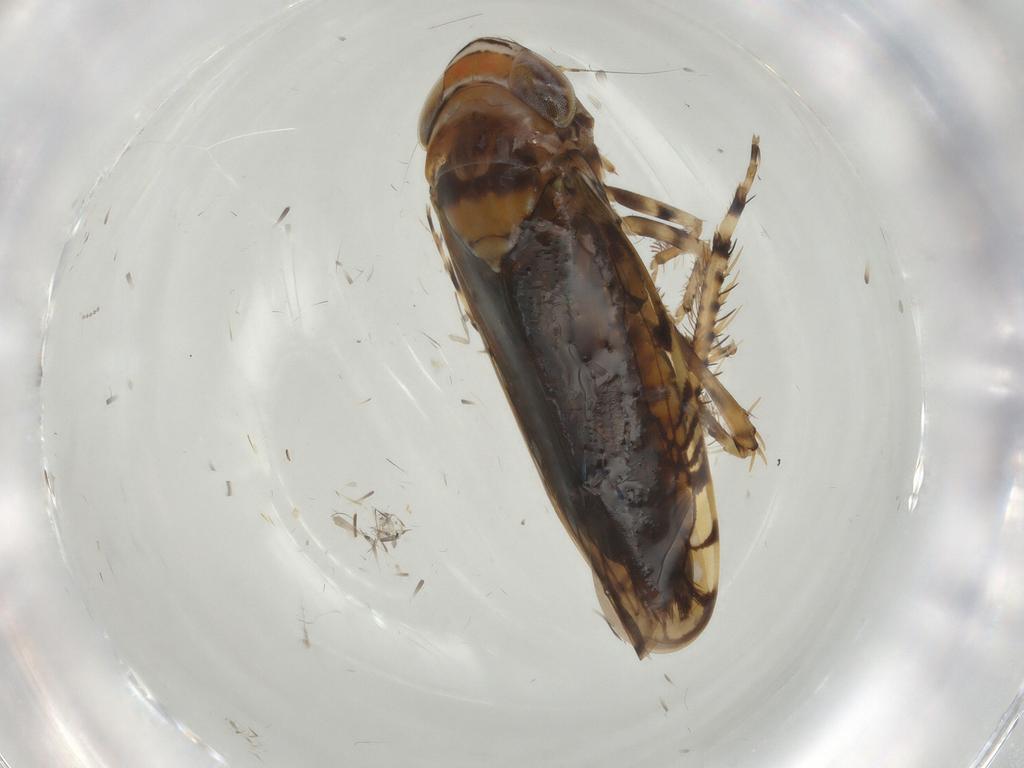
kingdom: Animalia
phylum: Arthropoda
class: Insecta
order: Hemiptera
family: Cicadellidae
